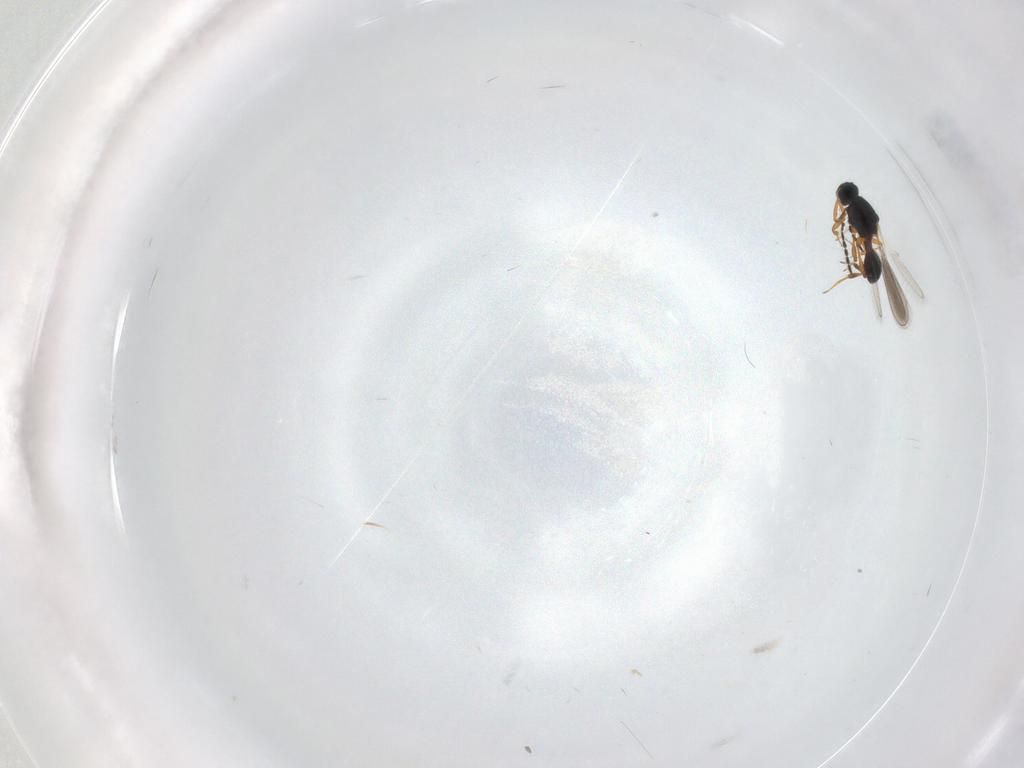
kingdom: Animalia
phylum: Arthropoda
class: Insecta
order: Hymenoptera
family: Platygastridae
